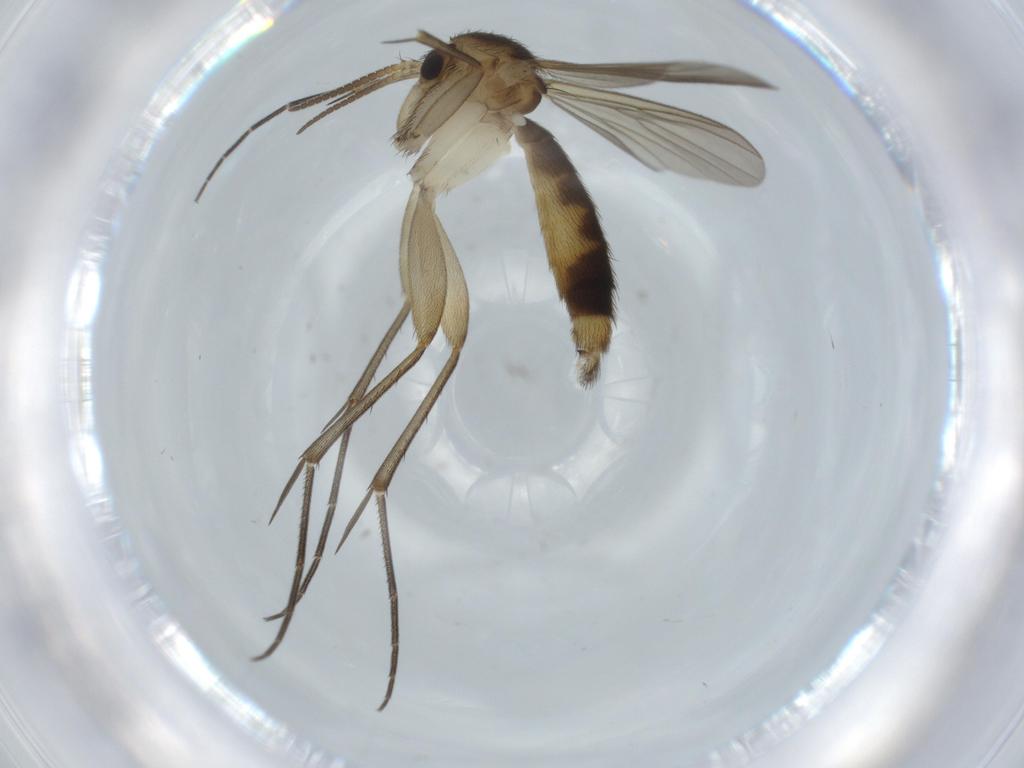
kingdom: Animalia
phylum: Arthropoda
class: Insecta
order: Diptera
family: Mycetophilidae
